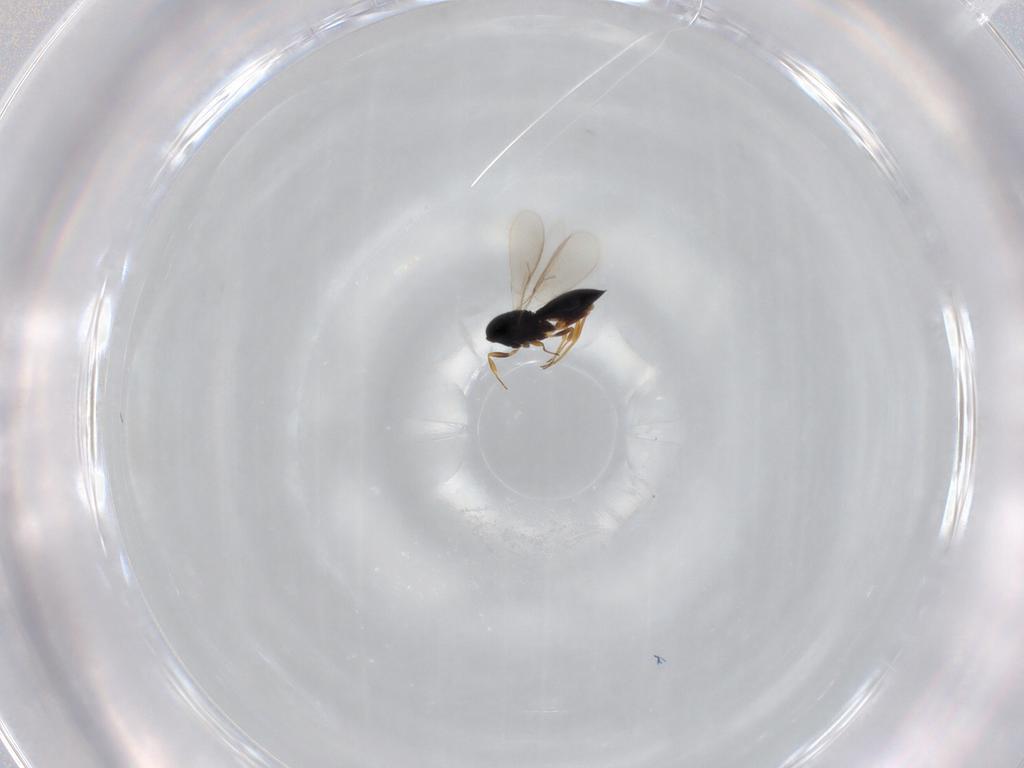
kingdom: Animalia
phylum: Arthropoda
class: Insecta
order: Hymenoptera
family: Scelionidae
